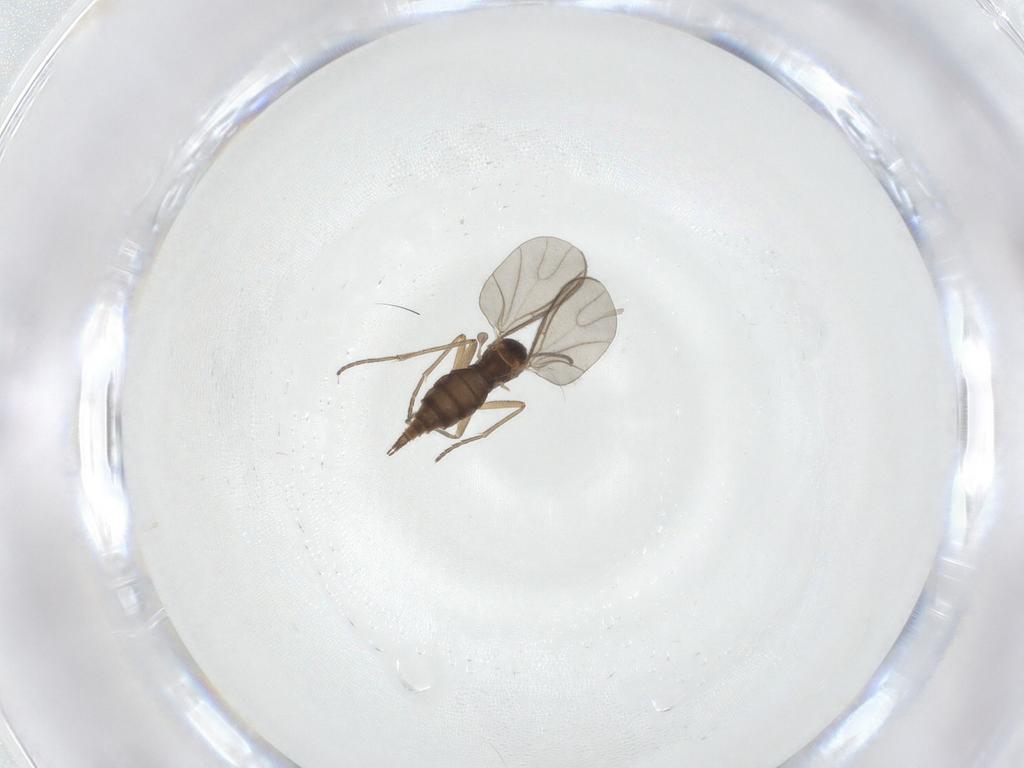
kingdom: Animalia
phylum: Arthropoda
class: Insecta
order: Diptera
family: Sciaridae
